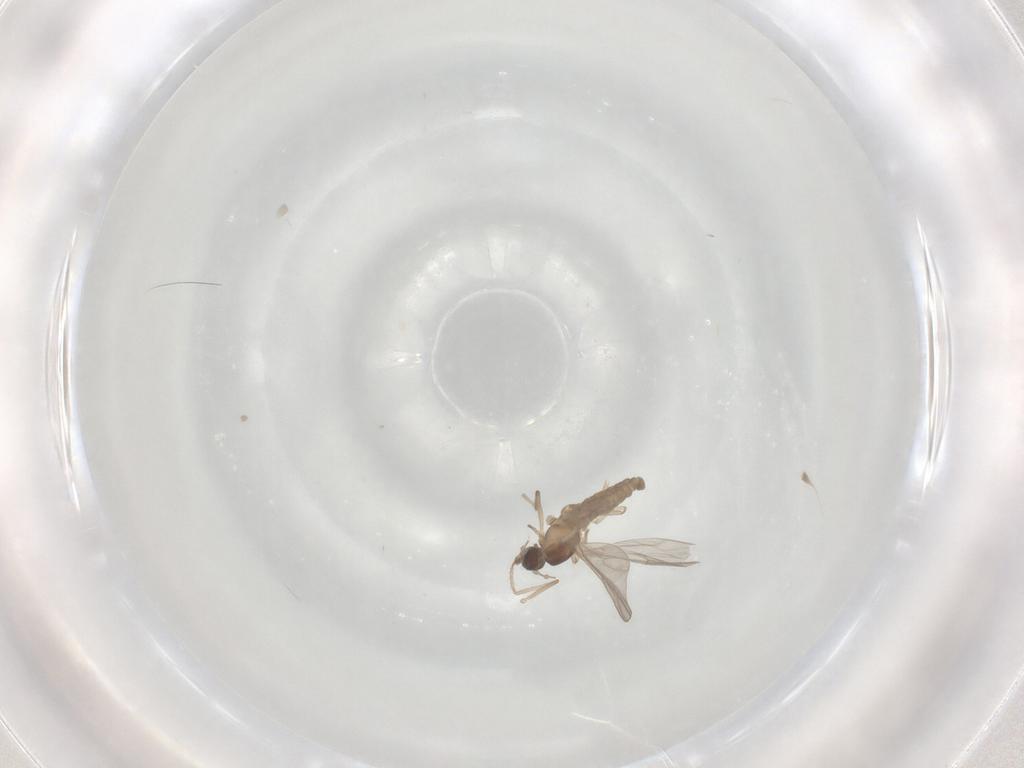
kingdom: Animalia
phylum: Arthropoda
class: Insecta
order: Diptera
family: Cecidomyiidae
